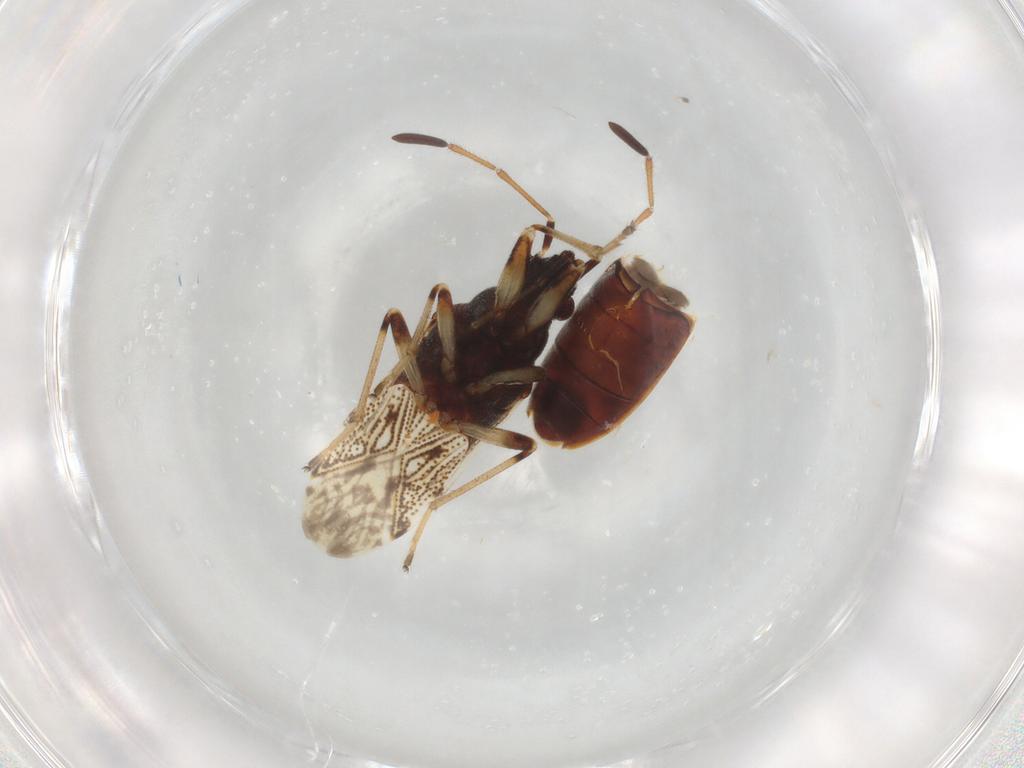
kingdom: Animalia
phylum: Arthropoda
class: Insecta
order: Hemiptera
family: Rhyparochromidae
